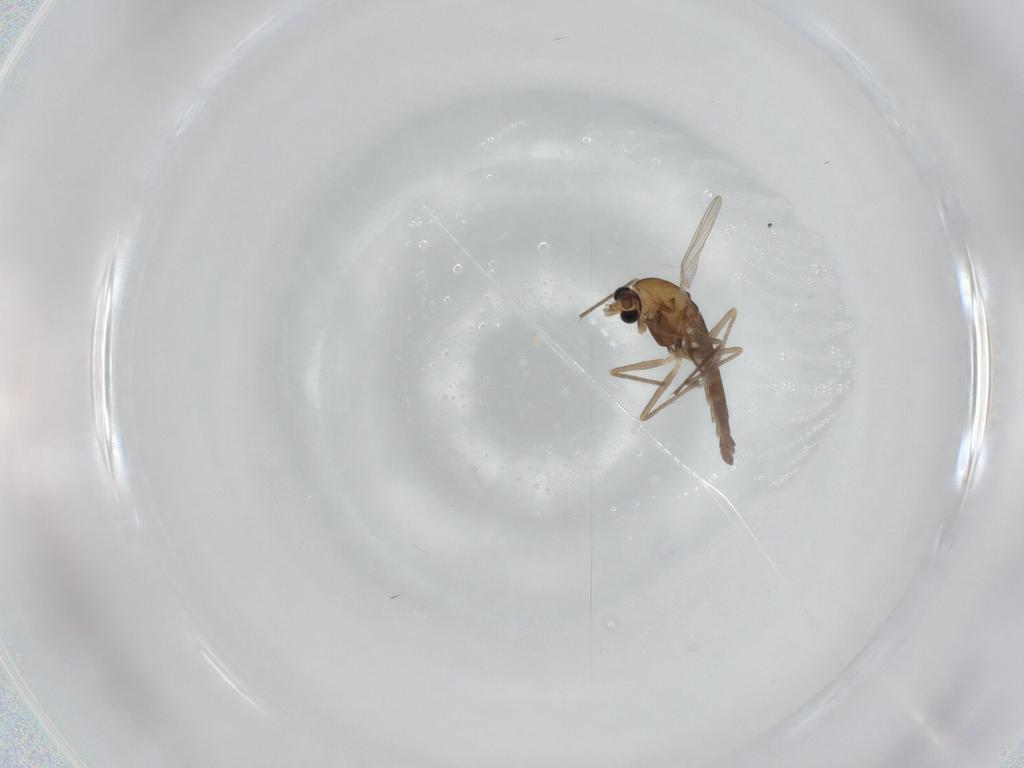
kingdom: Animalia
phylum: Arthropoda
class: Insecta
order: Diptera
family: Chironomidae
